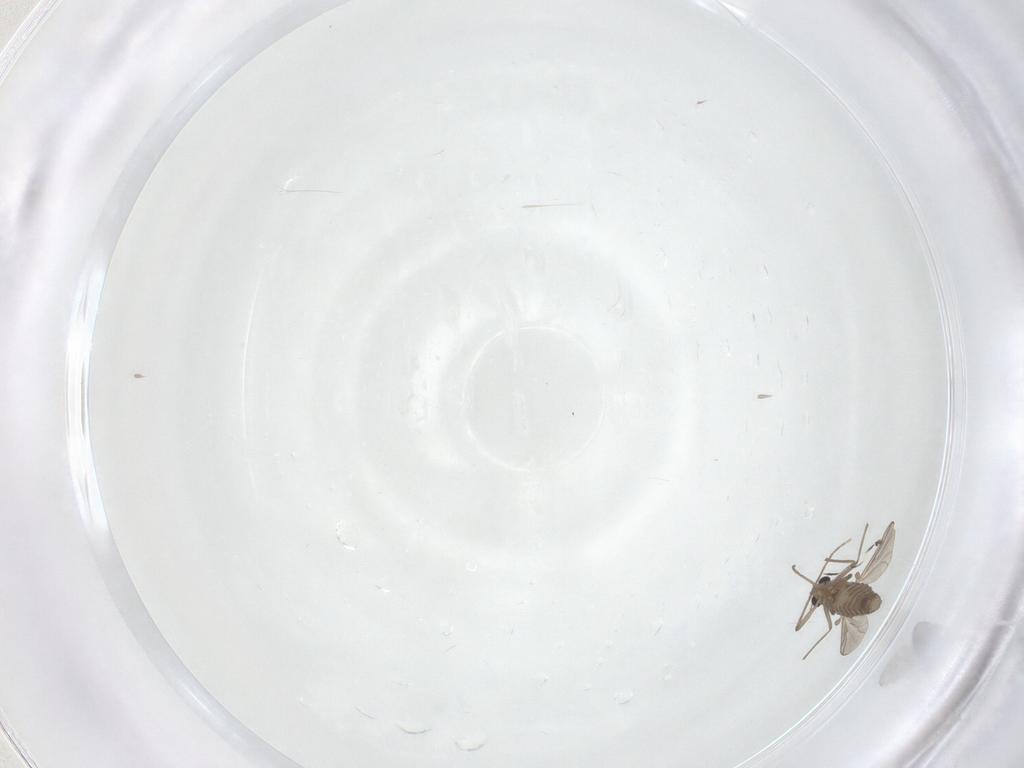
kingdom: Animalia
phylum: Arthropoda
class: Insecta
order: Diptera
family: Chironomidae
